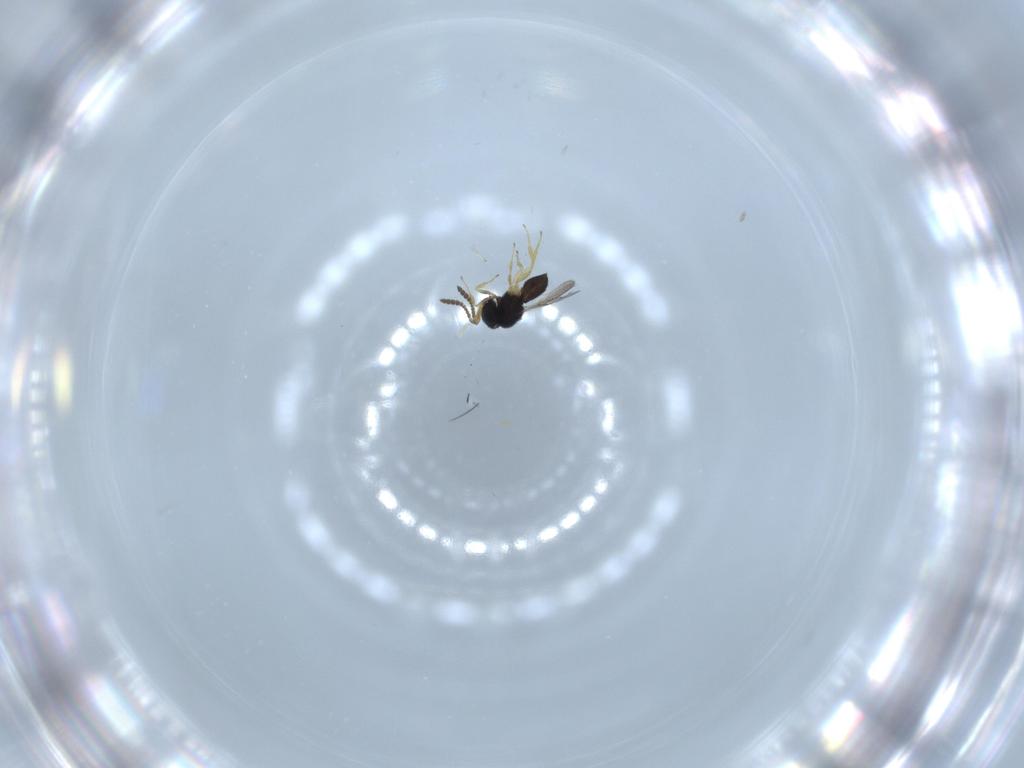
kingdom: Animalia
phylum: Arthropoda
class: Insecta
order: Hymenoptera
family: Scelionidae
